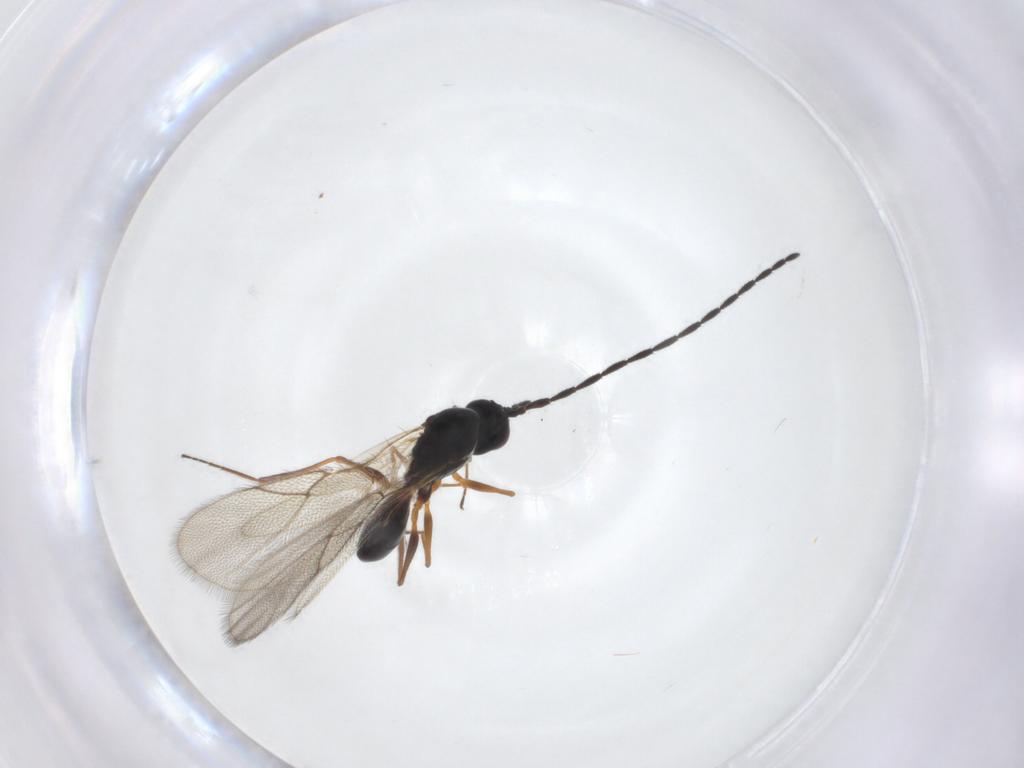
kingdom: Animalia
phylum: Arthropoda
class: Insecta
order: Hymenoptera
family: Figitidae
